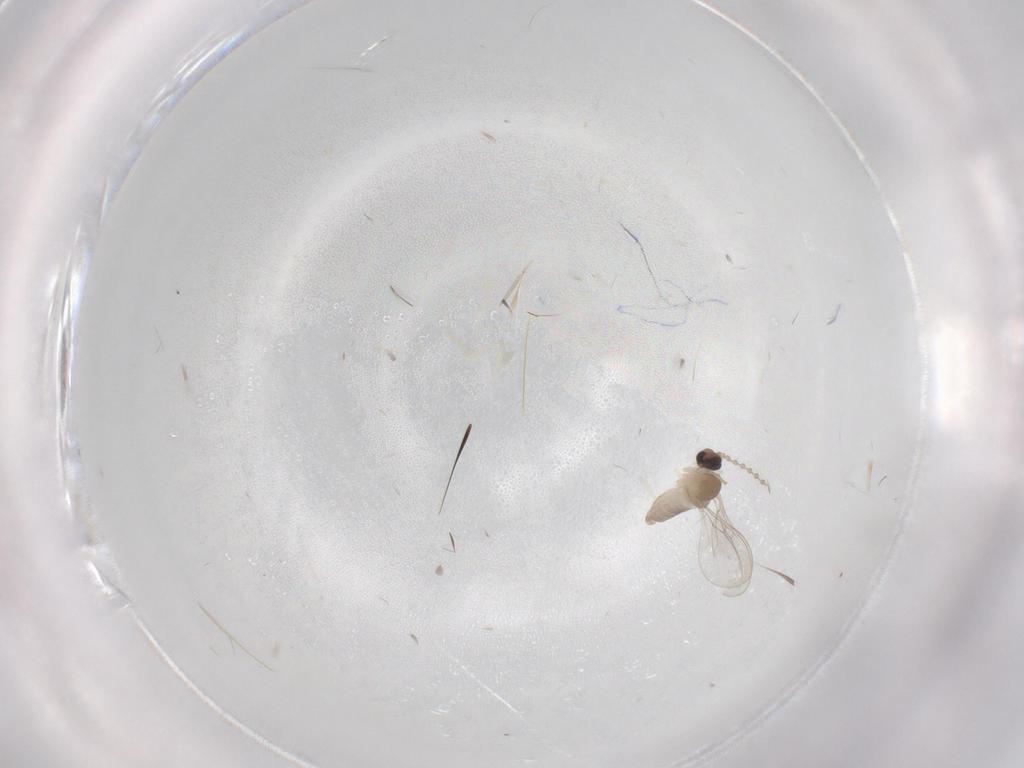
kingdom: Animalia
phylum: Arthropoda
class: Insecta
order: Diptera
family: Cecidomyiidae
